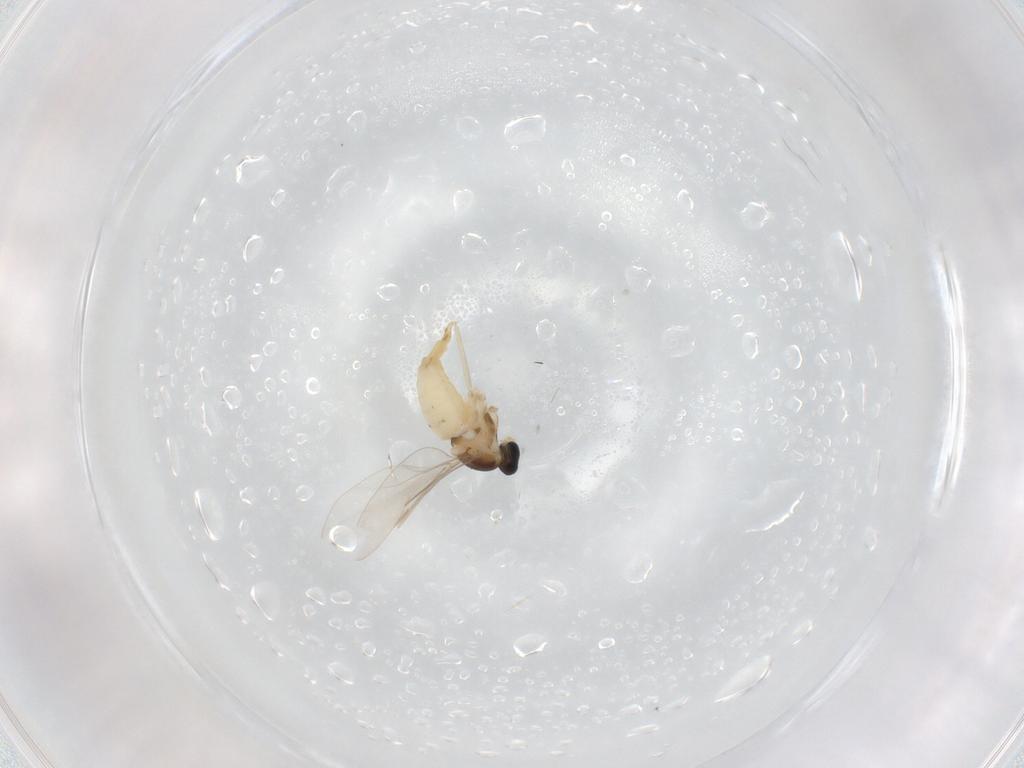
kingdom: Animalia
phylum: Arthropoda
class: Insecta
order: Diptera
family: Cecidomyiidae
